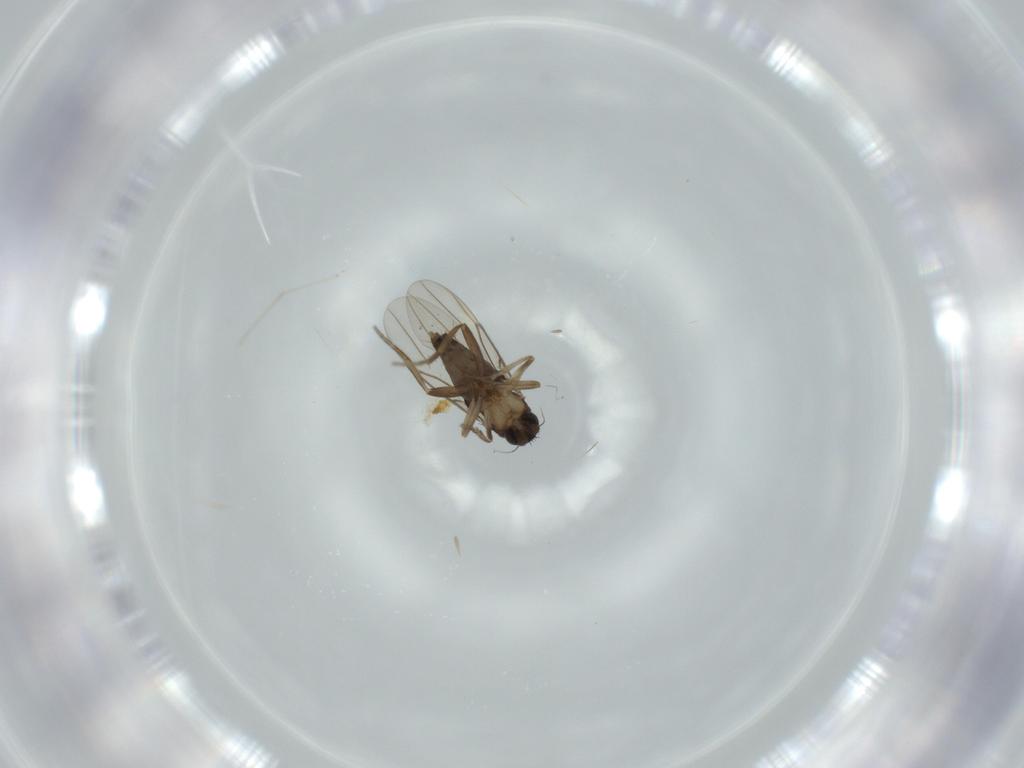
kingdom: Animalia
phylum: Arthropoda
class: Insecta
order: Diptera
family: Phoridae
